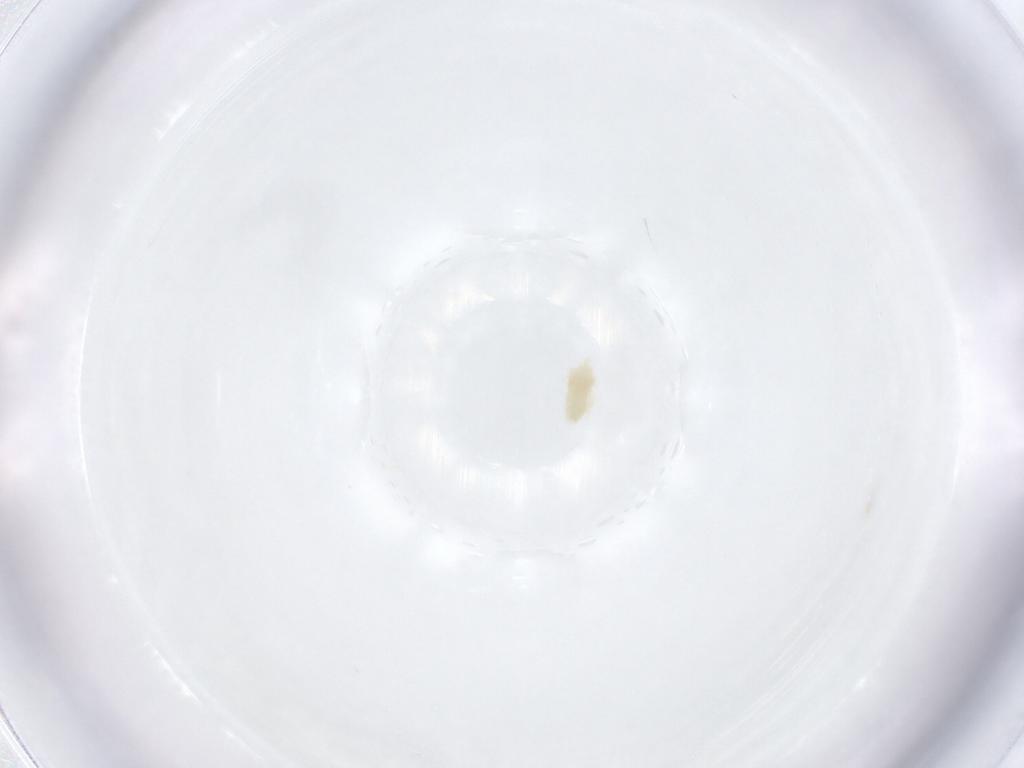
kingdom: Animalia
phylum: Arthropoda
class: Arachnida
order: Trombidiformes
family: Eupodidae
